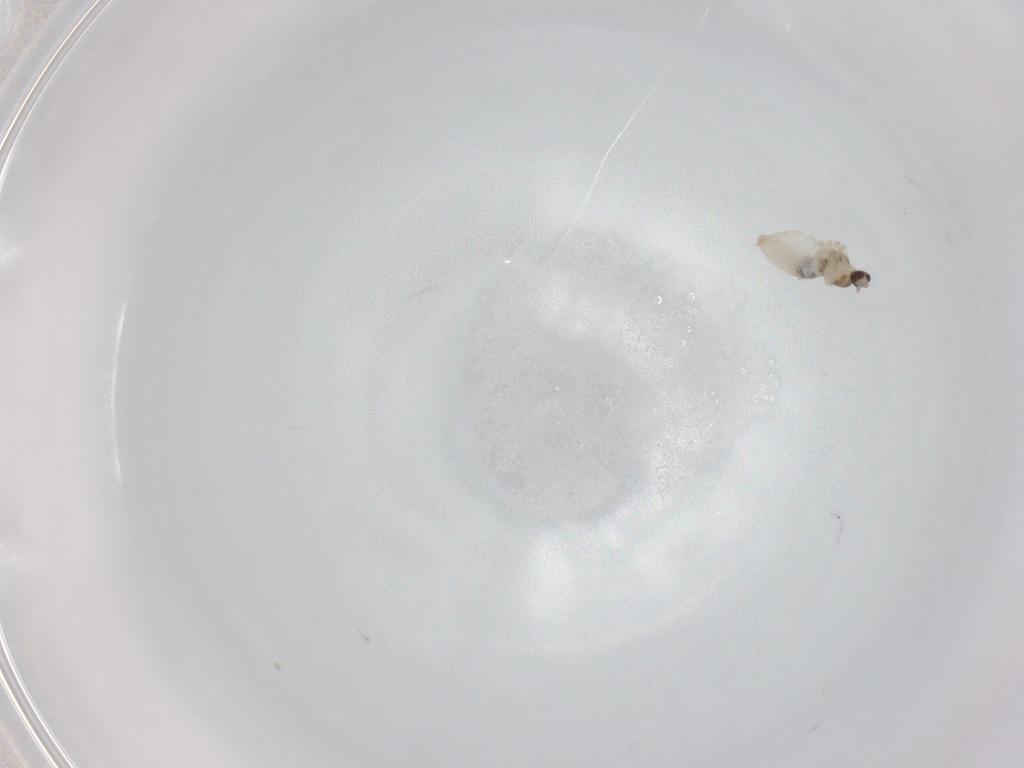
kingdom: Animalia
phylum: Arthropoda
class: Insecta
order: Diptera
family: Cecidomyiidae
